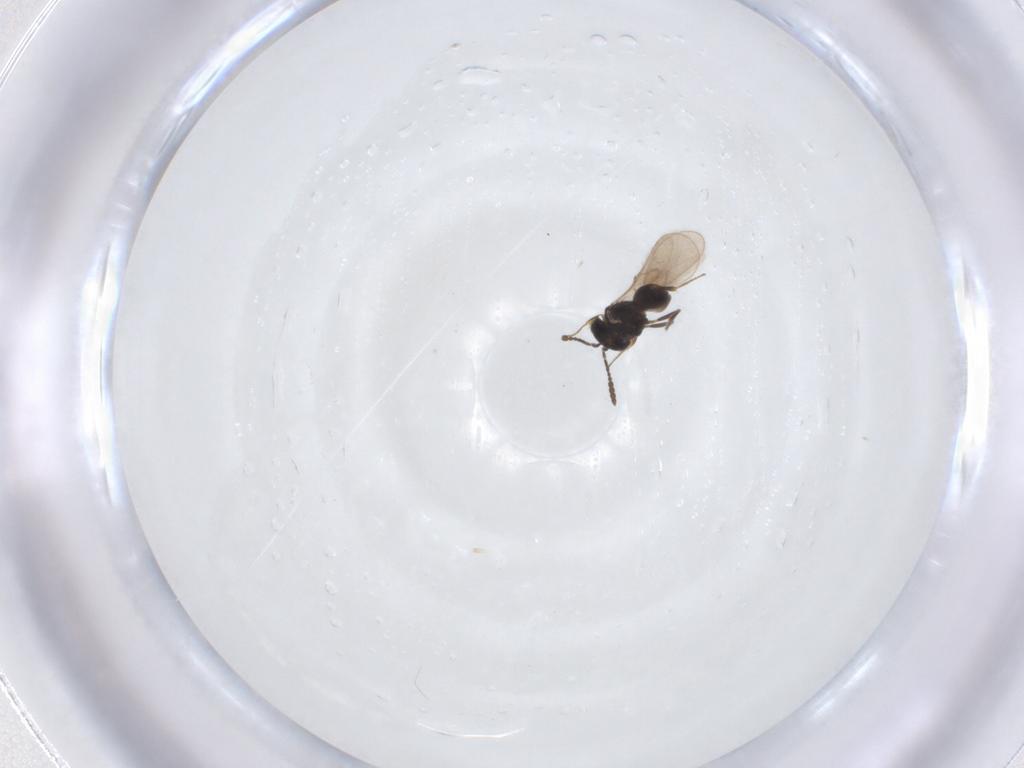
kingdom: Animalia
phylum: Arthropoda
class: Insecta
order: Hymenoptera
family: Scelionidae
